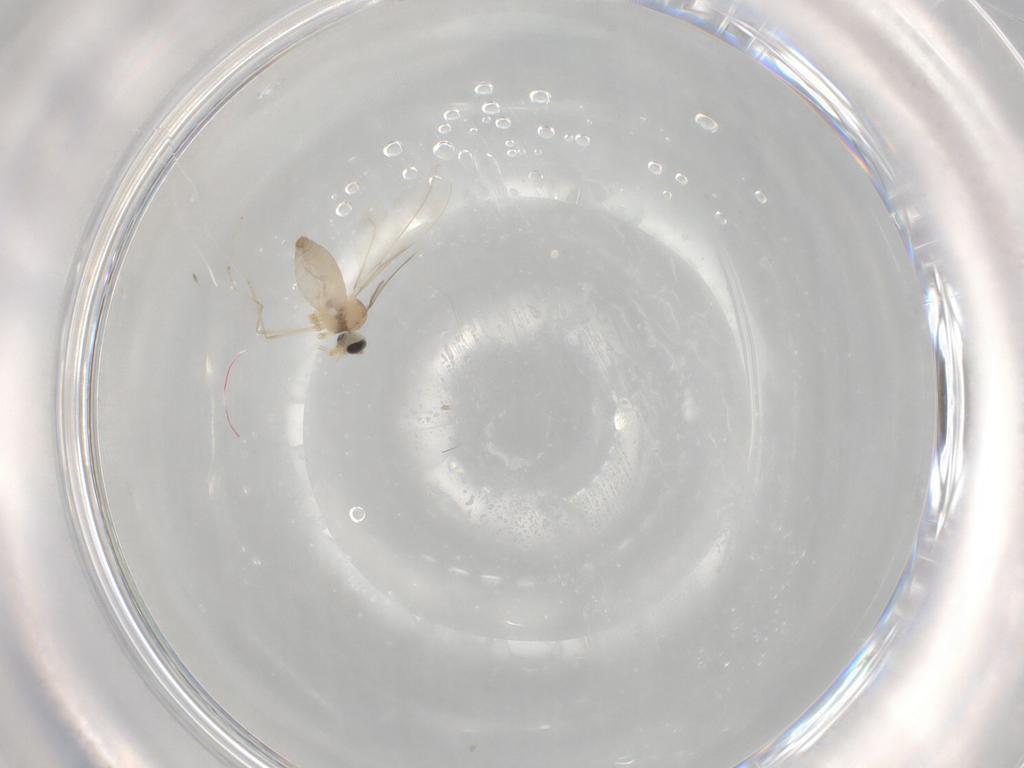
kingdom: Animalia
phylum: Arthropoda
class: Insecta
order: Diptera
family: Cecidomyiidae
